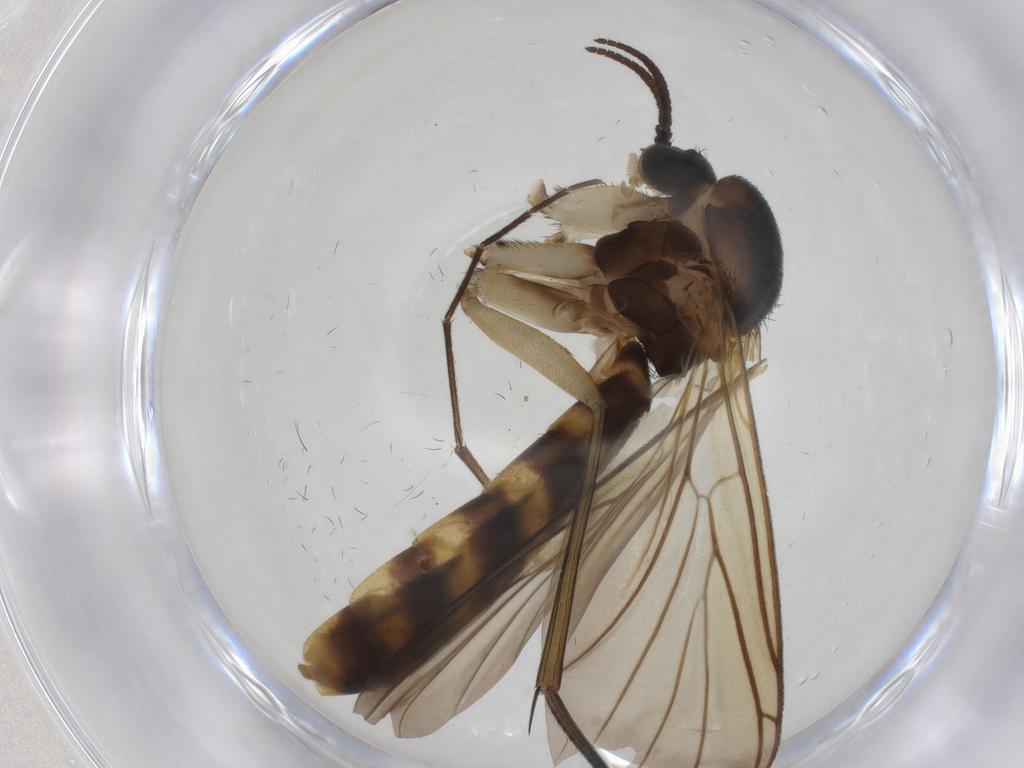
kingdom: Animalia
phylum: Arthropoda
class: Insecta
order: Diptera
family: Keroplatidae
